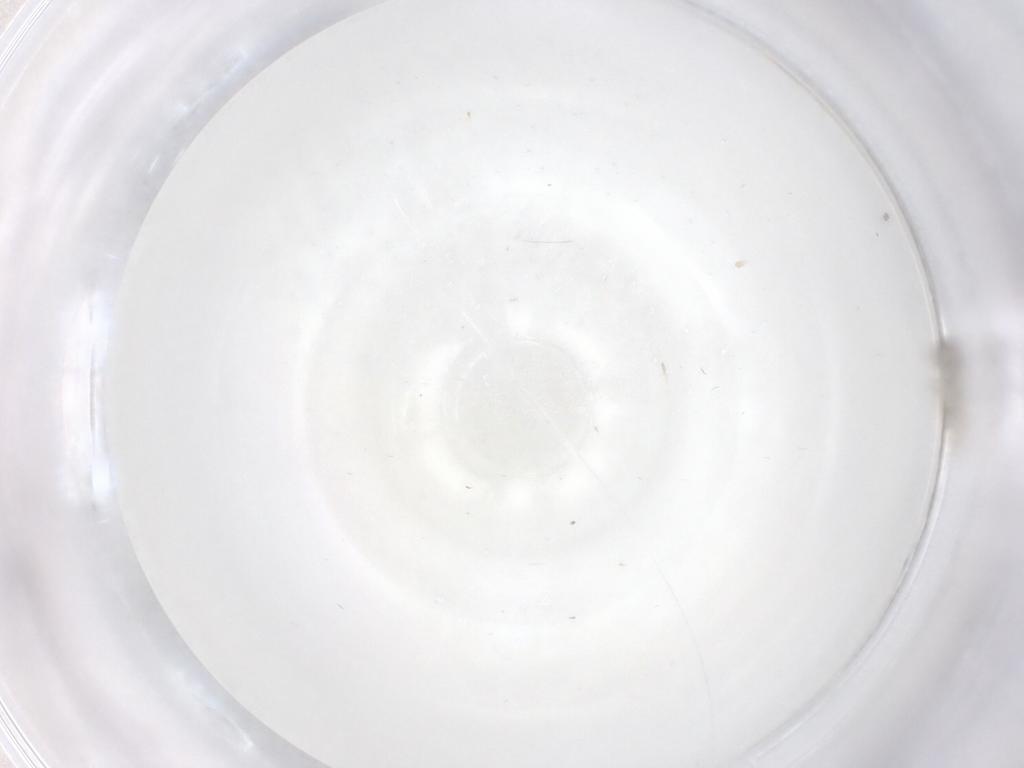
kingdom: Animalia
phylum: Arthropoda
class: Insecta
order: Diptera
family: Cecidomyiidae
